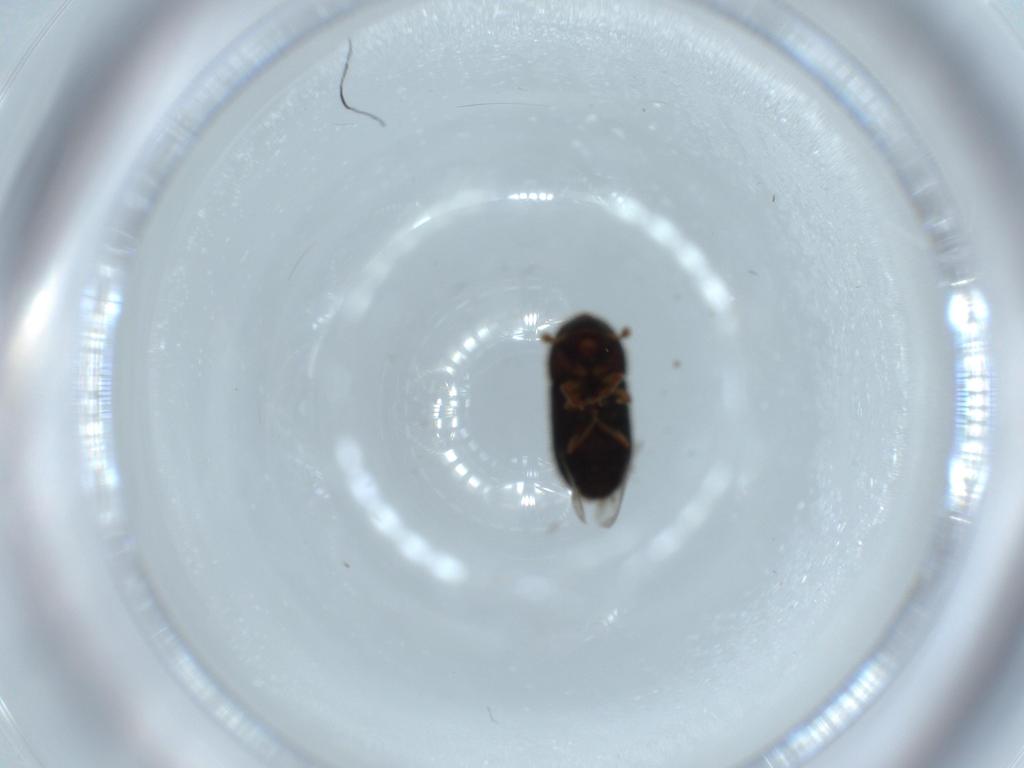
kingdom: Animalia
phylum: Arthropoda
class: Insecta
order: Coleoptera
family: Curculionidae
